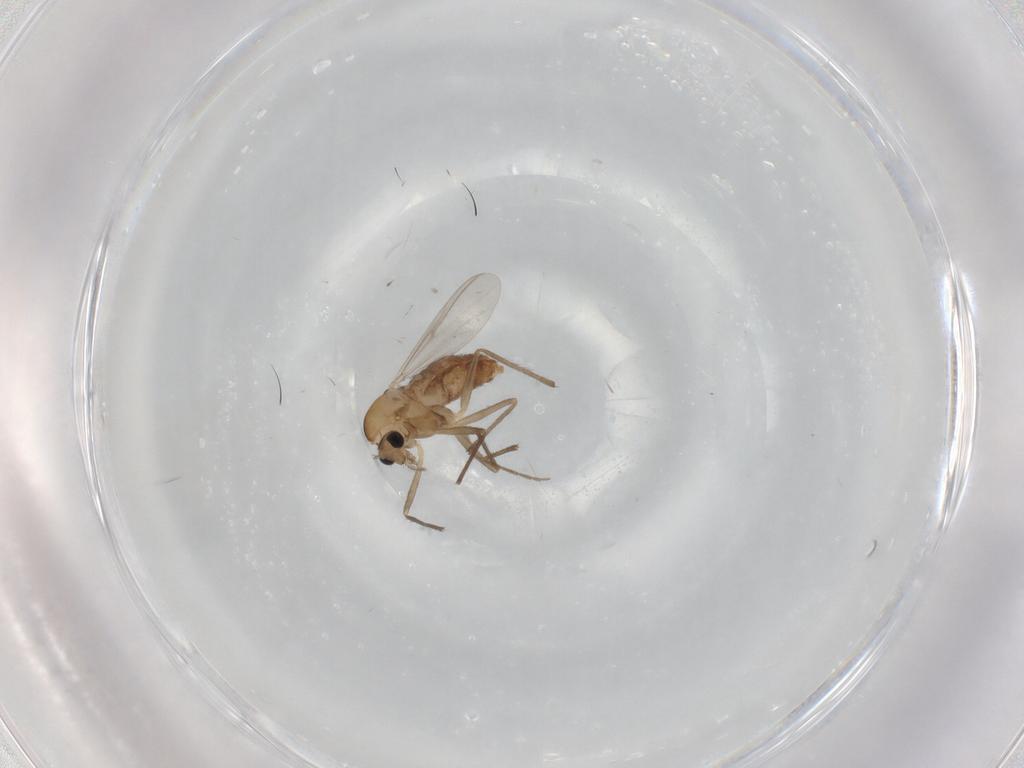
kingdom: Animalia
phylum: Arthropoda
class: Insecta
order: Diptera
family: Chironomidae
